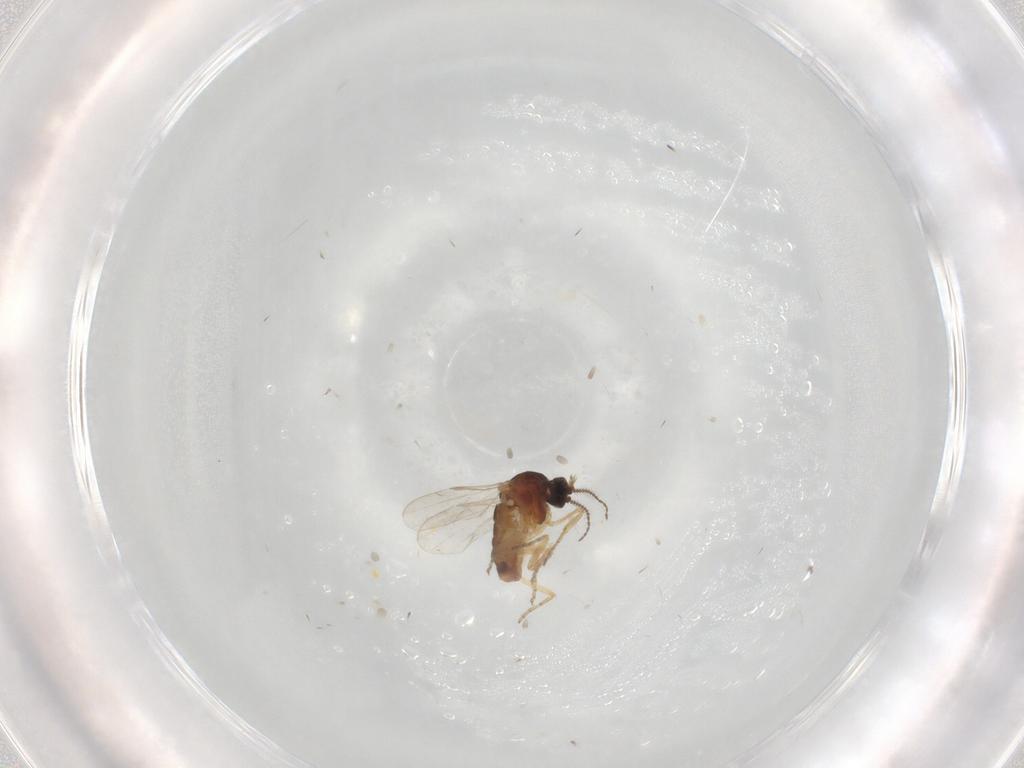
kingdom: Animalia
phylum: Arthropoda
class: Insecta
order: Diptera
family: Ceratopogonidae
